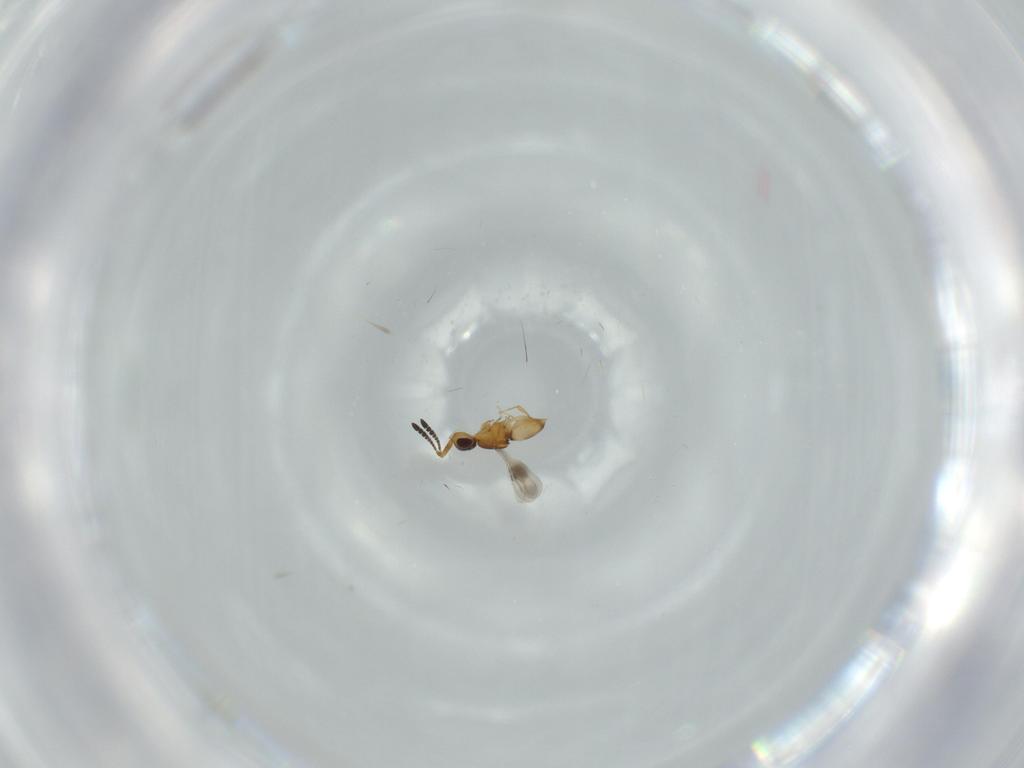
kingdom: Animalia
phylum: Arthropoda
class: Insecta
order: Hymenoptera
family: Ceraphronidae
